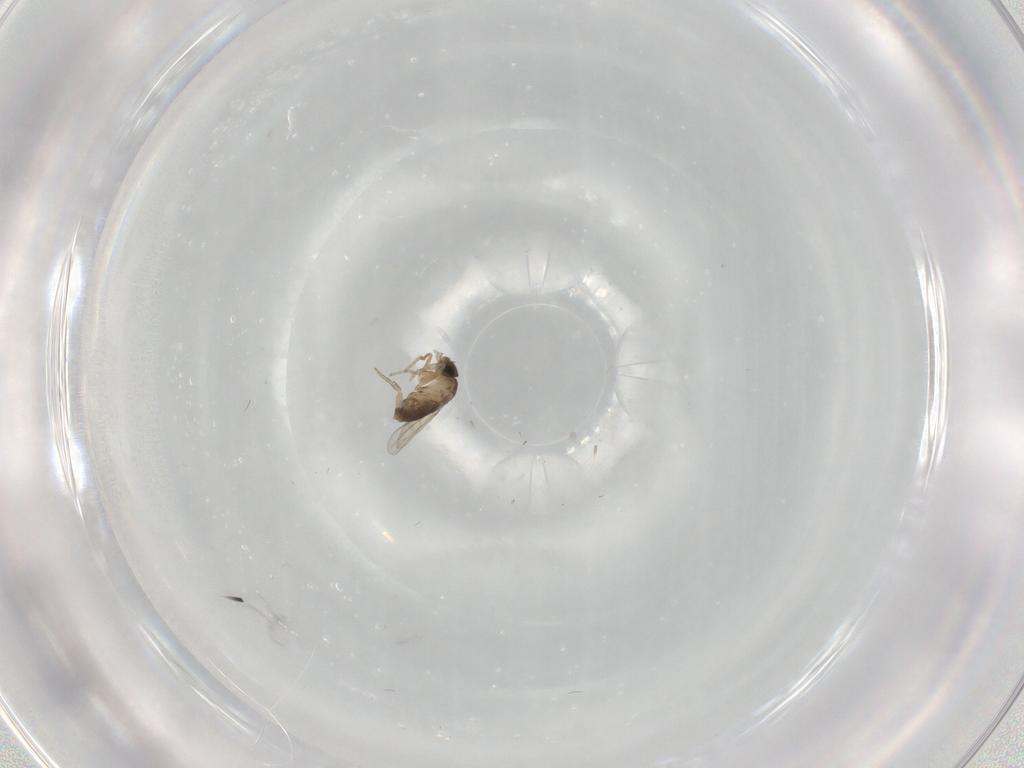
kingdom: Animalia
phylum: Arthropoda
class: Insecta
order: Diptera
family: Phoridae
